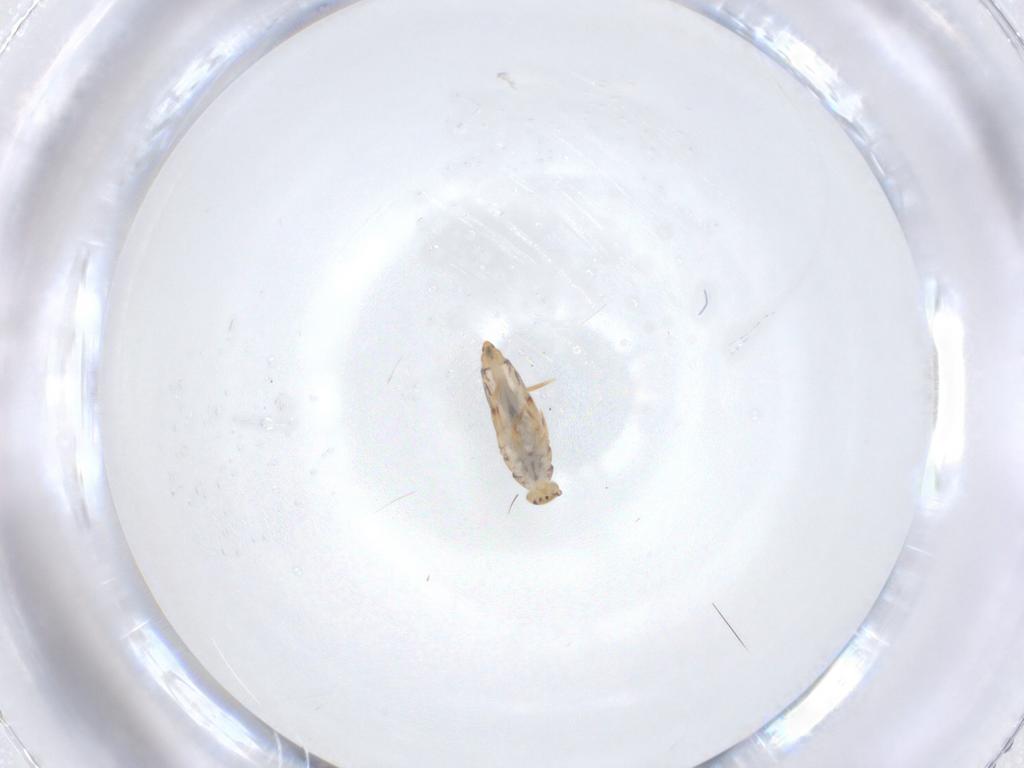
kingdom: Animalia
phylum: Arthropoda
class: Collembola
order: Entomobryomorpha
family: Entomobryidae
